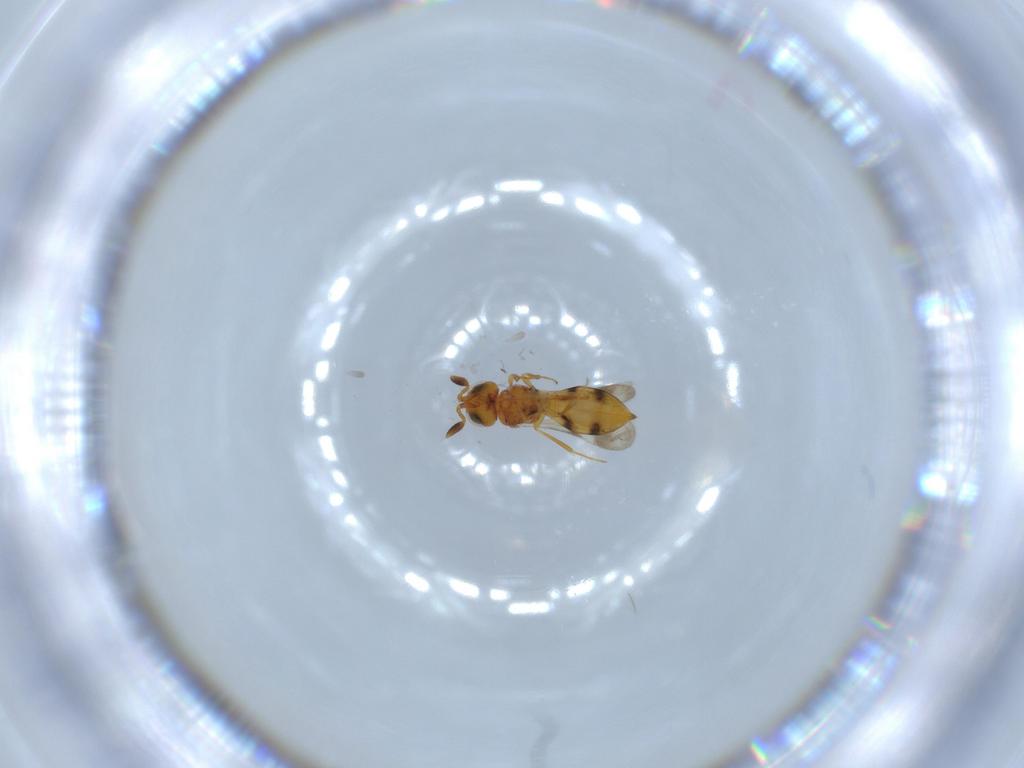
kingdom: Animalia
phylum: Arthropoda
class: Insecta
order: Hymenoptera
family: Scelionidae
